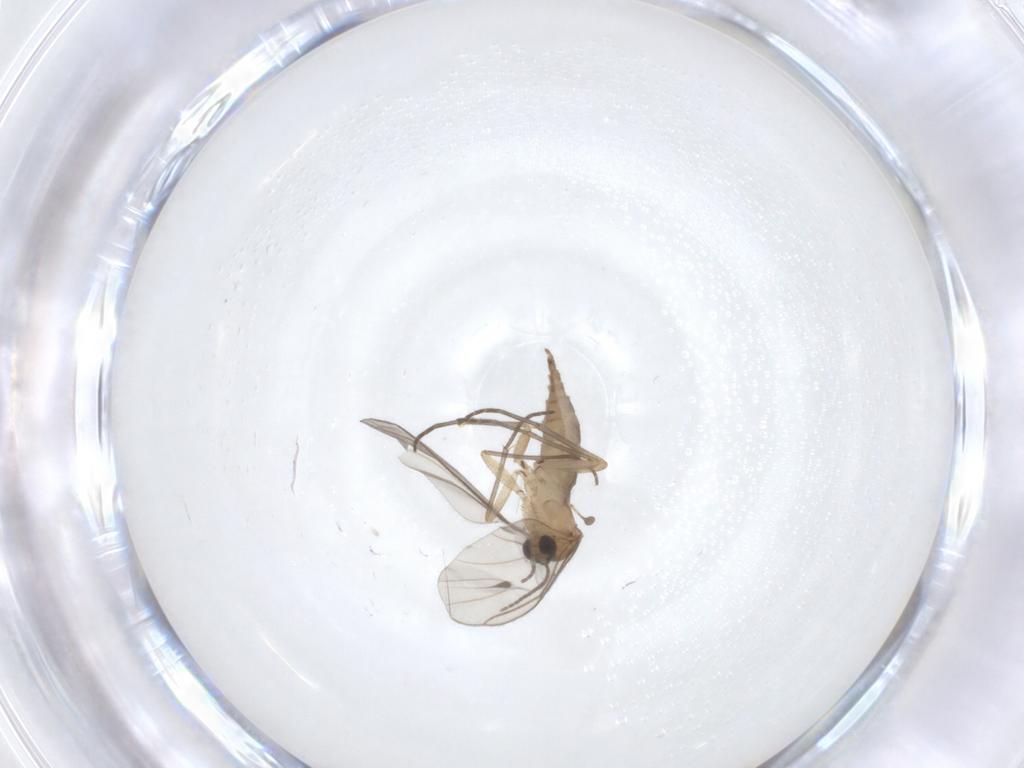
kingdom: Animalia
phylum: Arthropoda
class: Insecta
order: Diptera
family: Sciaridae
